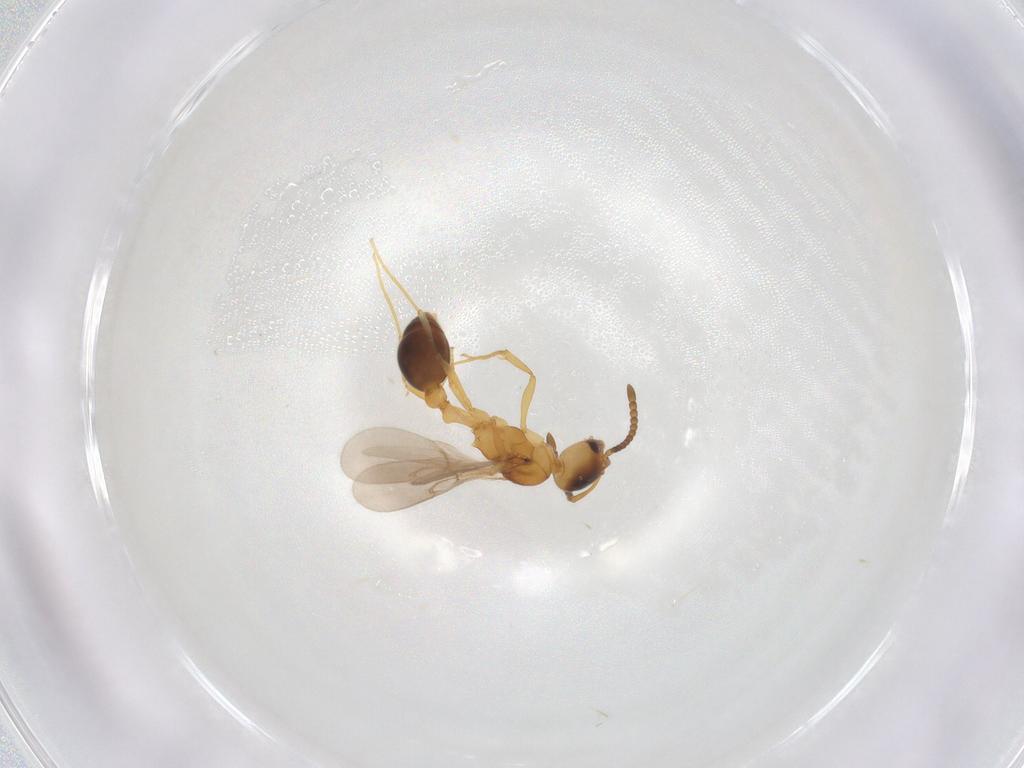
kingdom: Animalia
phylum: Arthropoda
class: Insecta
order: Hymenoptera
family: Formicidae
